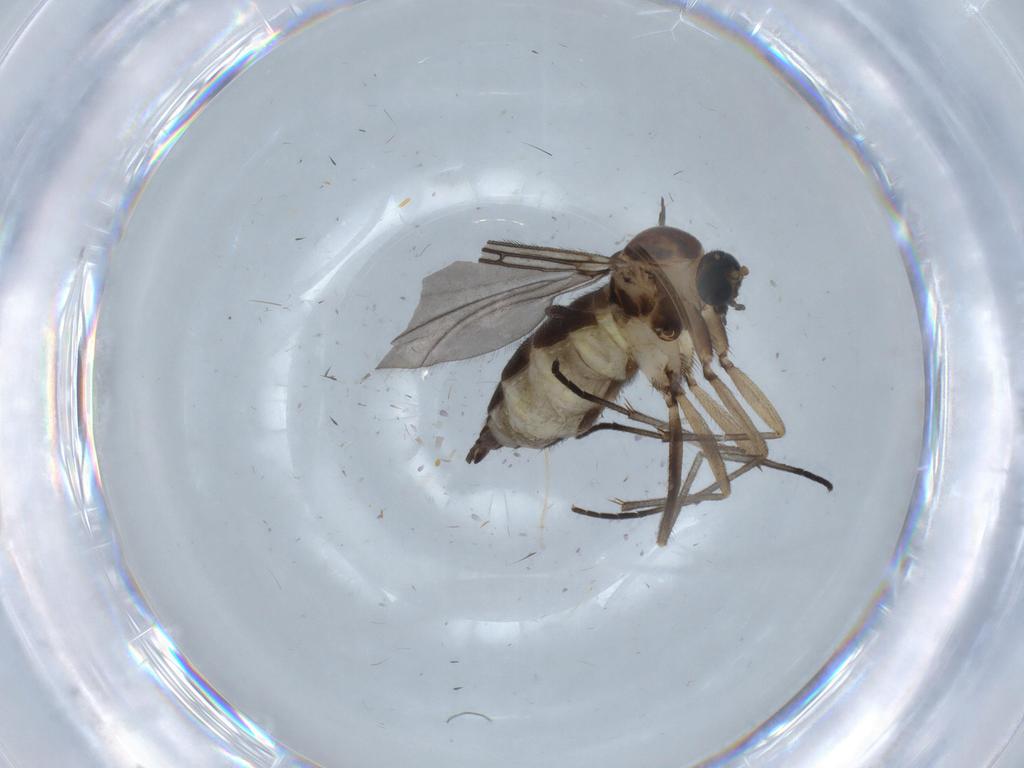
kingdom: Animalia
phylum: Arthropoda
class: Insecta
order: Diptera
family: Sciaridae
